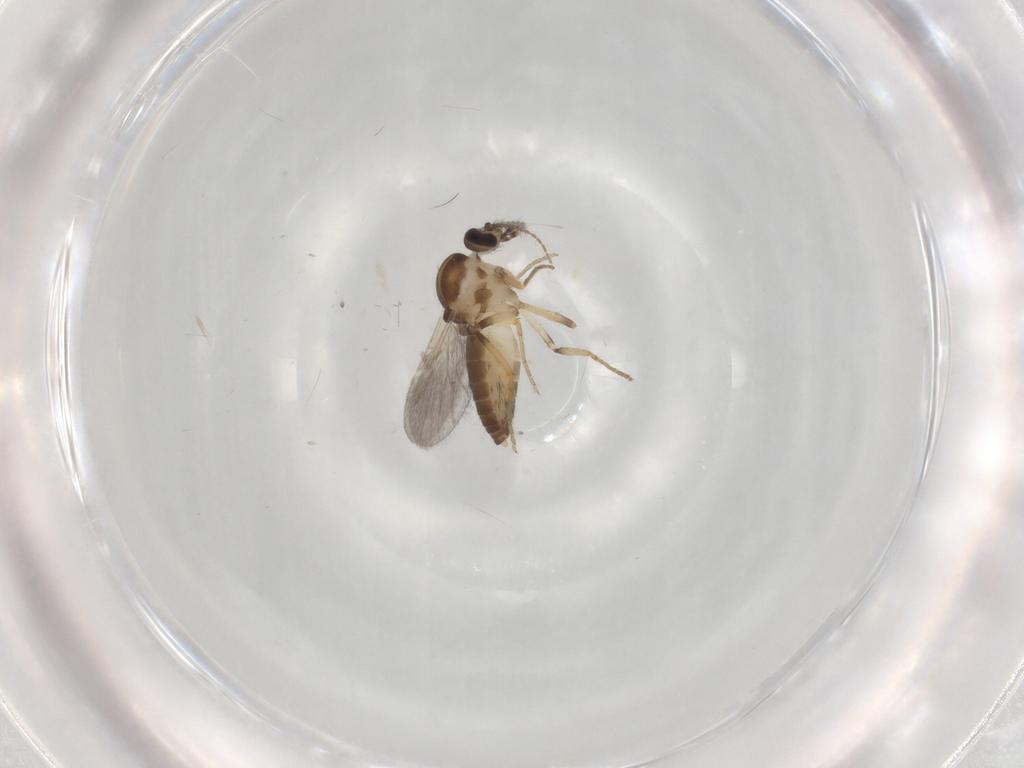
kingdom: Animalia
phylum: Arthropoda
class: Insecta
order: Diptera
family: Ceratopogonidae
